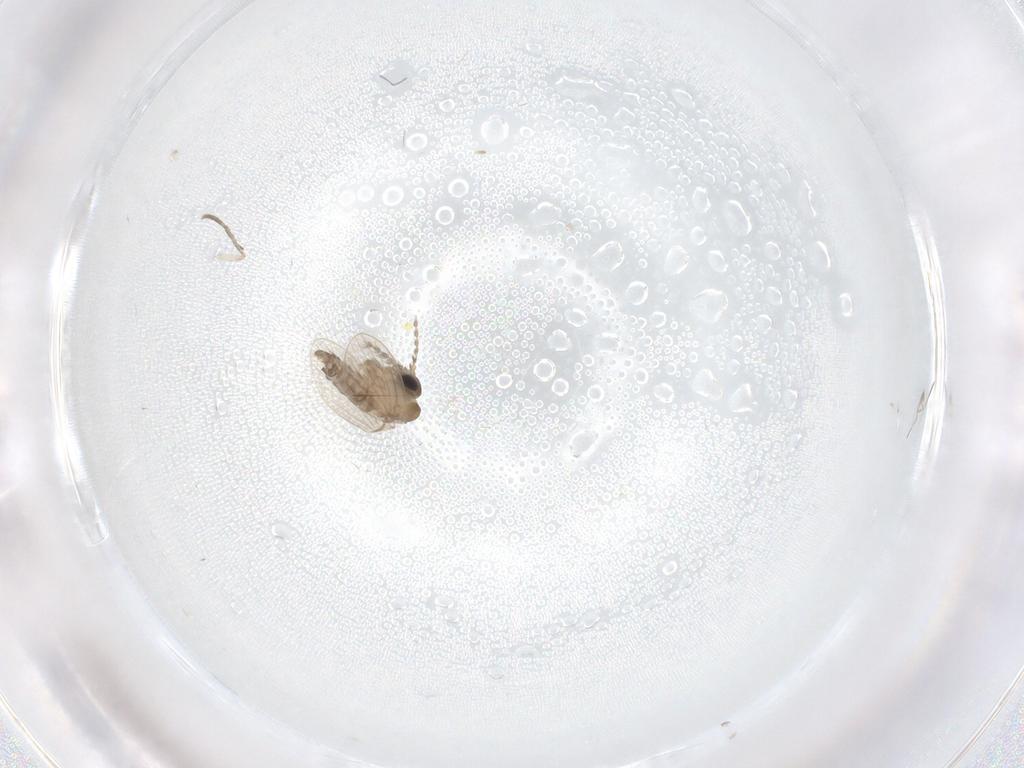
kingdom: Animalia
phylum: Arthropoda
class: Insecta
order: Diptera
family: Psychodidae
